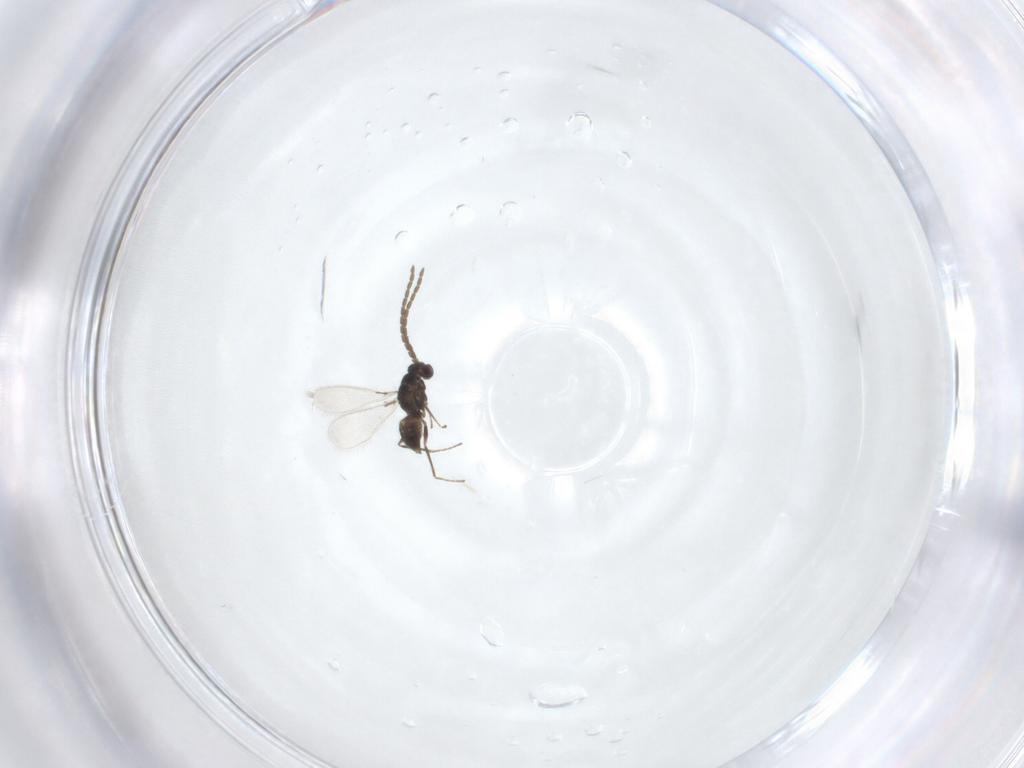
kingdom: Animalia
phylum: Arthropoda
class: Insecta
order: Hymenoptera
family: Mymaridae
